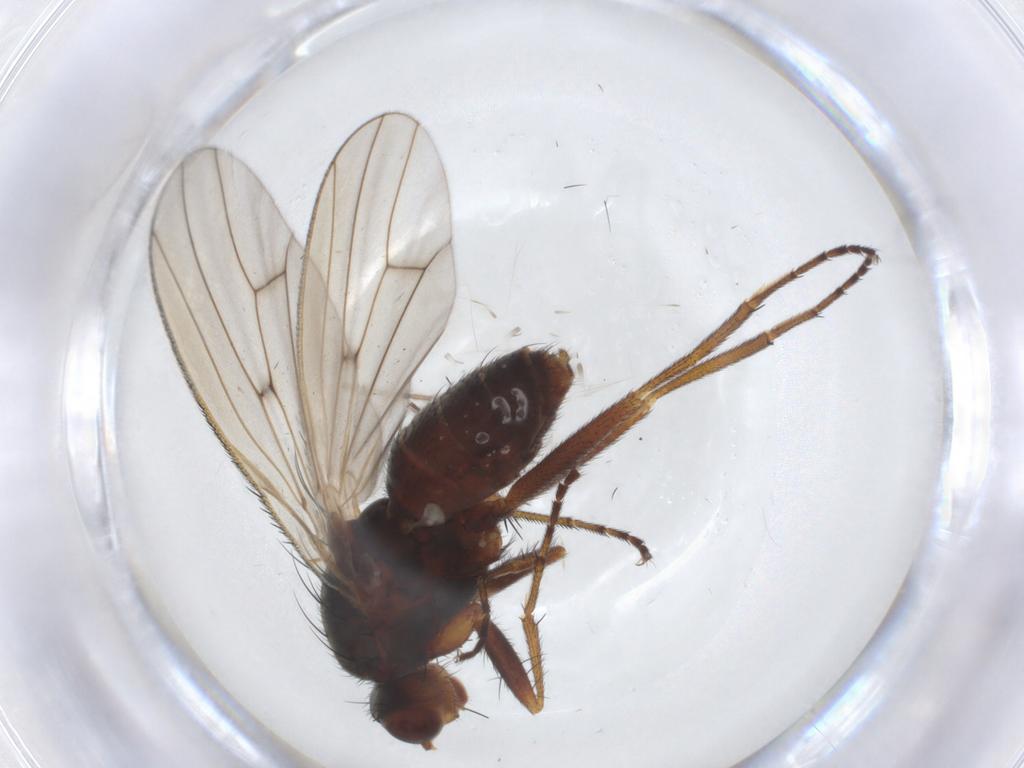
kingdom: Animalia
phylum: Arthropoda
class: Insecta
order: Diptera
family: Heleomyzidae
